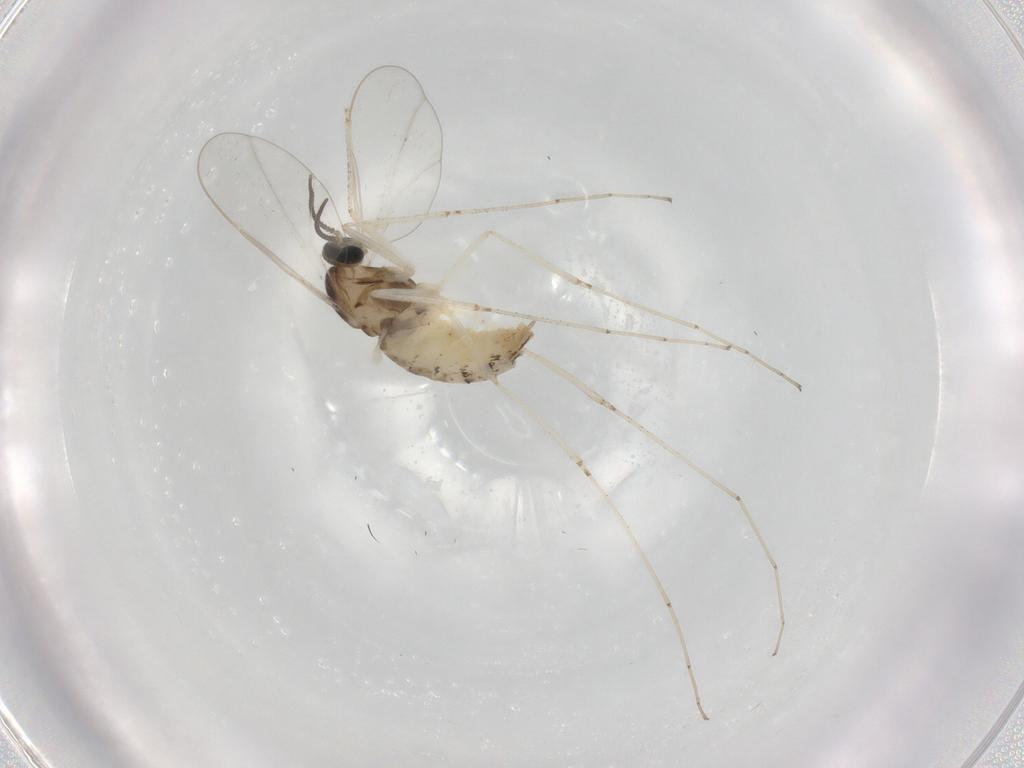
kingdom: Animalia
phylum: Arthropoda
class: Insecta
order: Diptera
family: Cecidomyiidae
